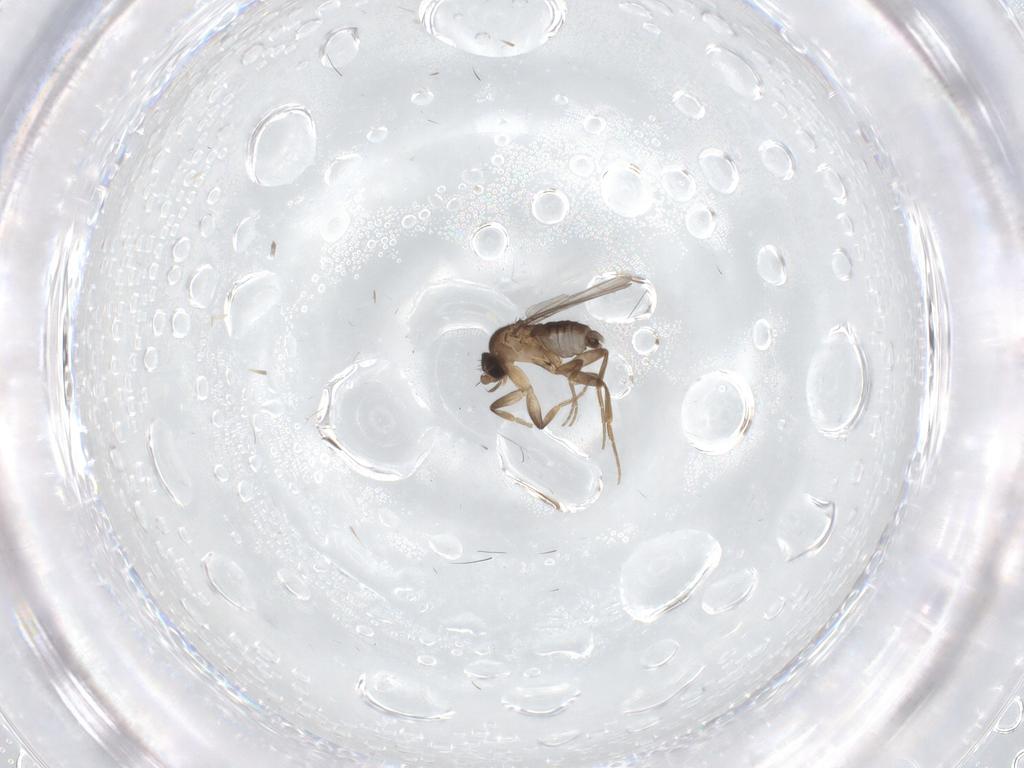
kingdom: Animalia
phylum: Arthropoda
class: Insecta
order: Diptera
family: Phoridae
